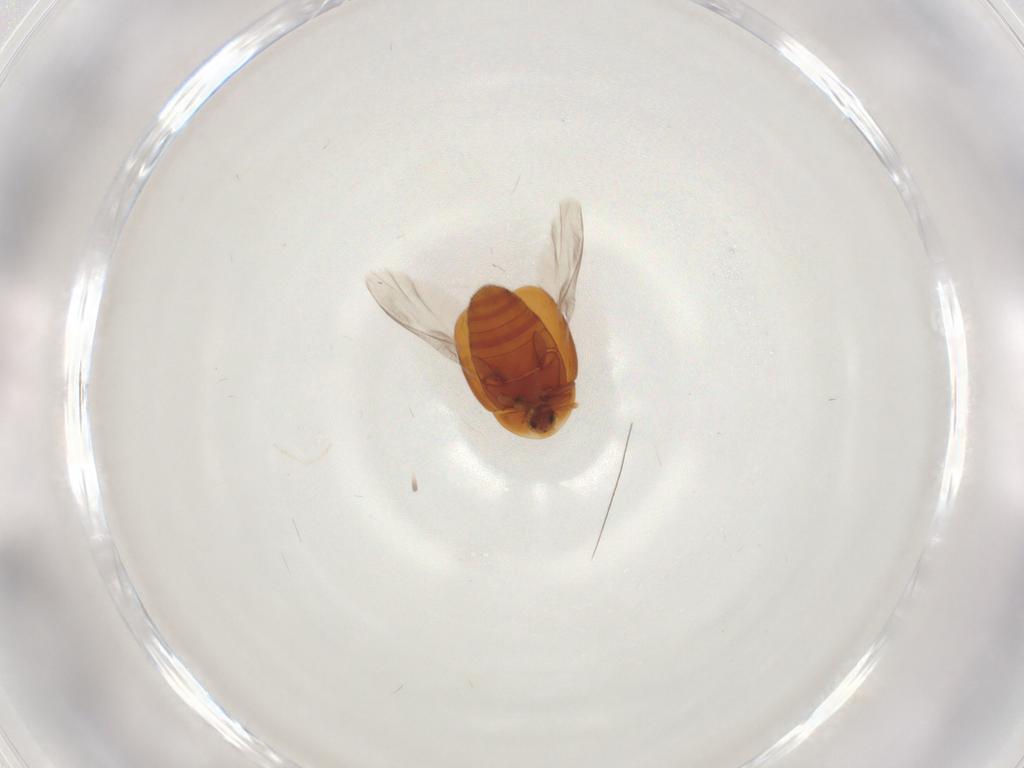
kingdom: Animalia
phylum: Arthropoda
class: Insecta
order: Coleoptera
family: Corylophidae
